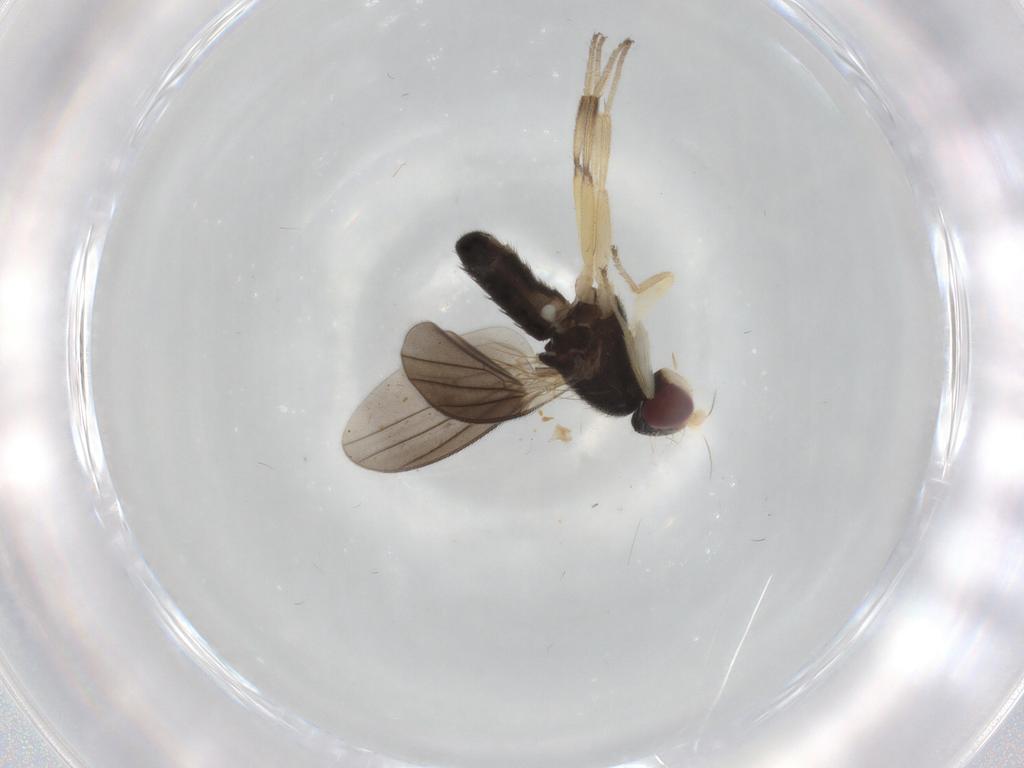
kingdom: Animalia
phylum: Arthropoda
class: Insecta
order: Diptera
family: Clusiidae
